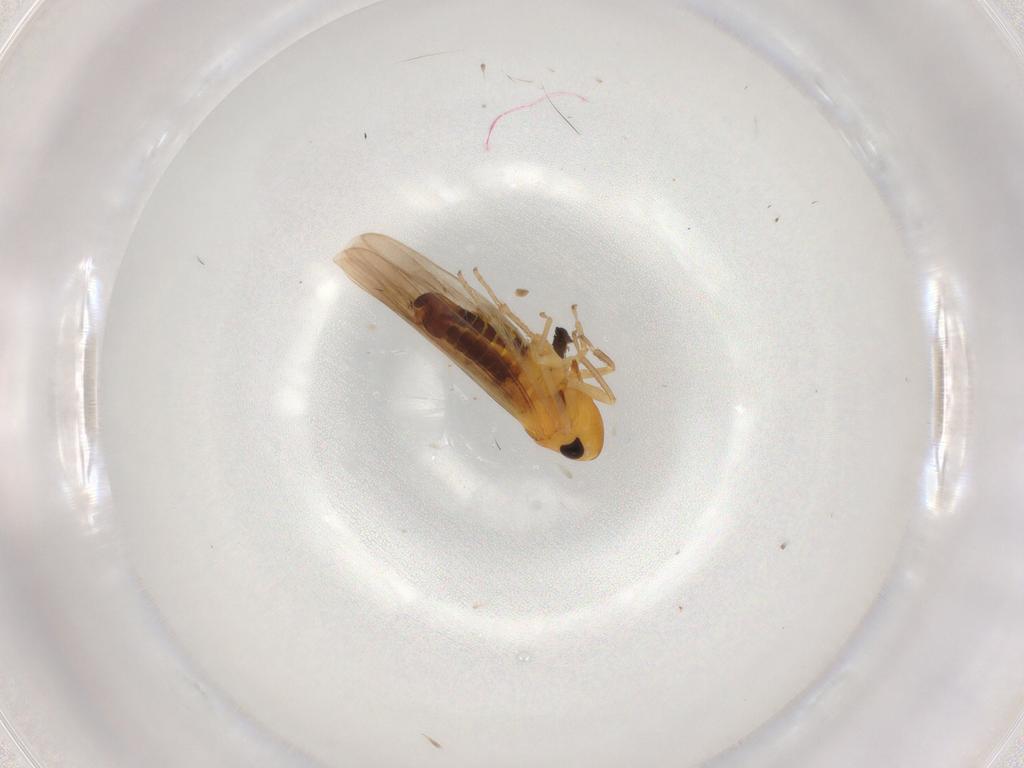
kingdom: Animalia
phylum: Arthropoda
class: Insecta
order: Hemiptera
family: Cicadellidae
